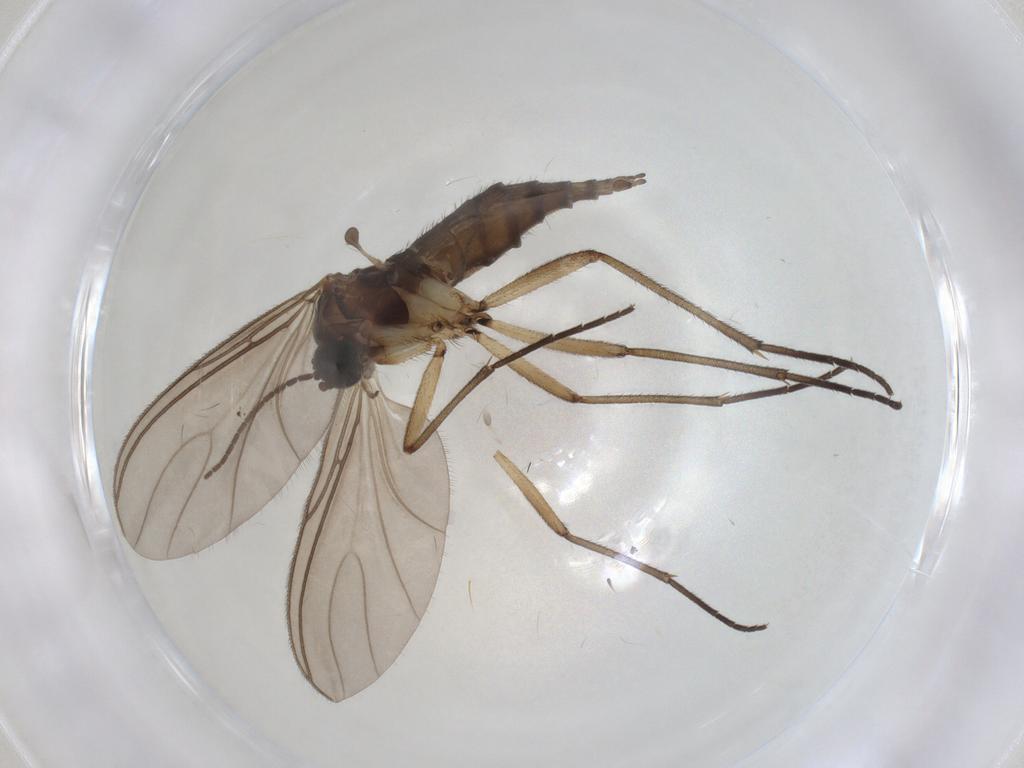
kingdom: Animalia
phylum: Arthropoda
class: Insecta
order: Diptera
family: Sciaridae
